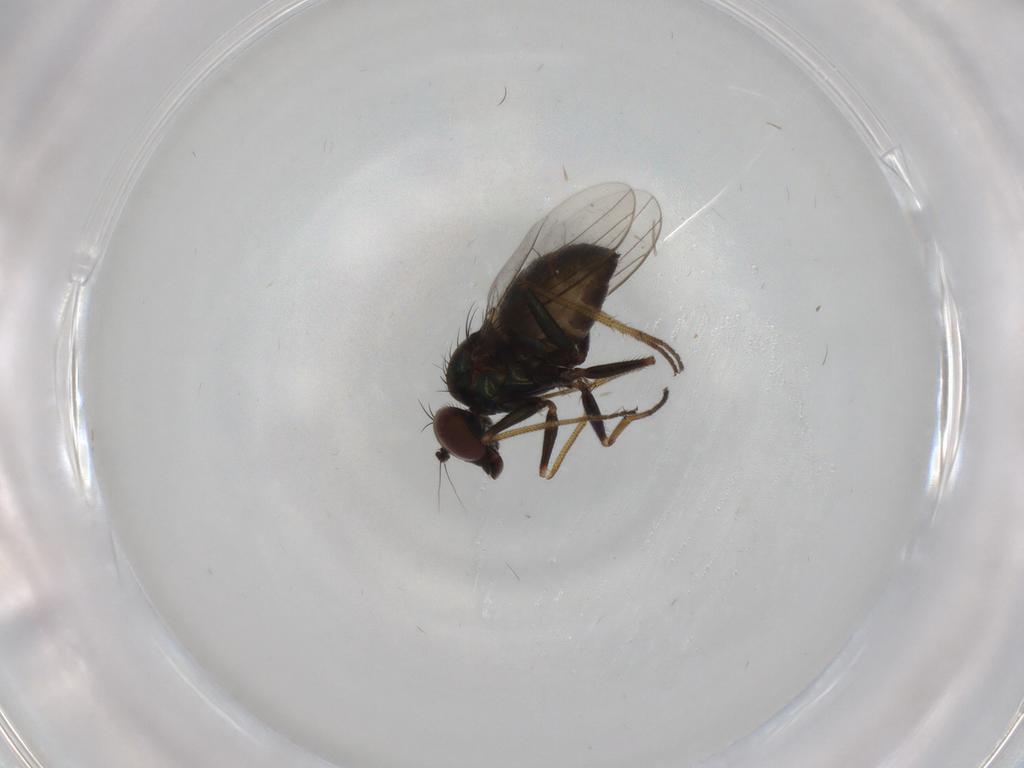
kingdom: Animalia
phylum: Arthropoda
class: Insecta
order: Diptera
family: Dolichopodidae
